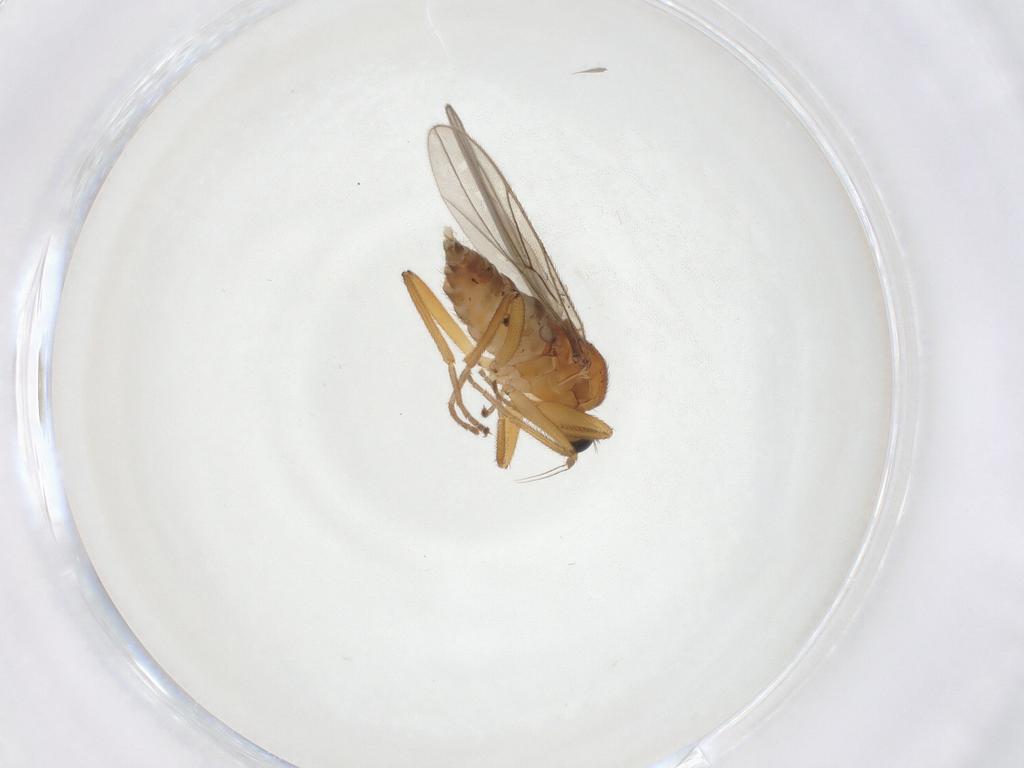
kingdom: Animalia
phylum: Arthropoda
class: Insecta
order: Diptera
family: Hybotidae
